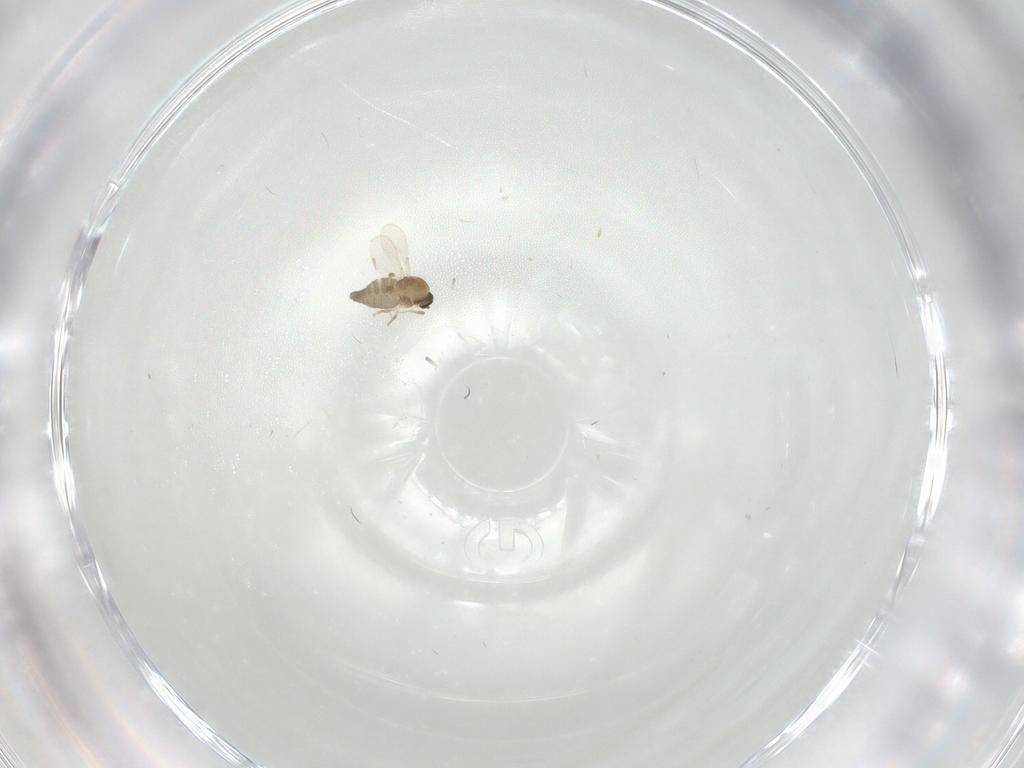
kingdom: Animalia
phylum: Arthropoda
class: Insecta
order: Diptera
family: Ceratopogonidae
